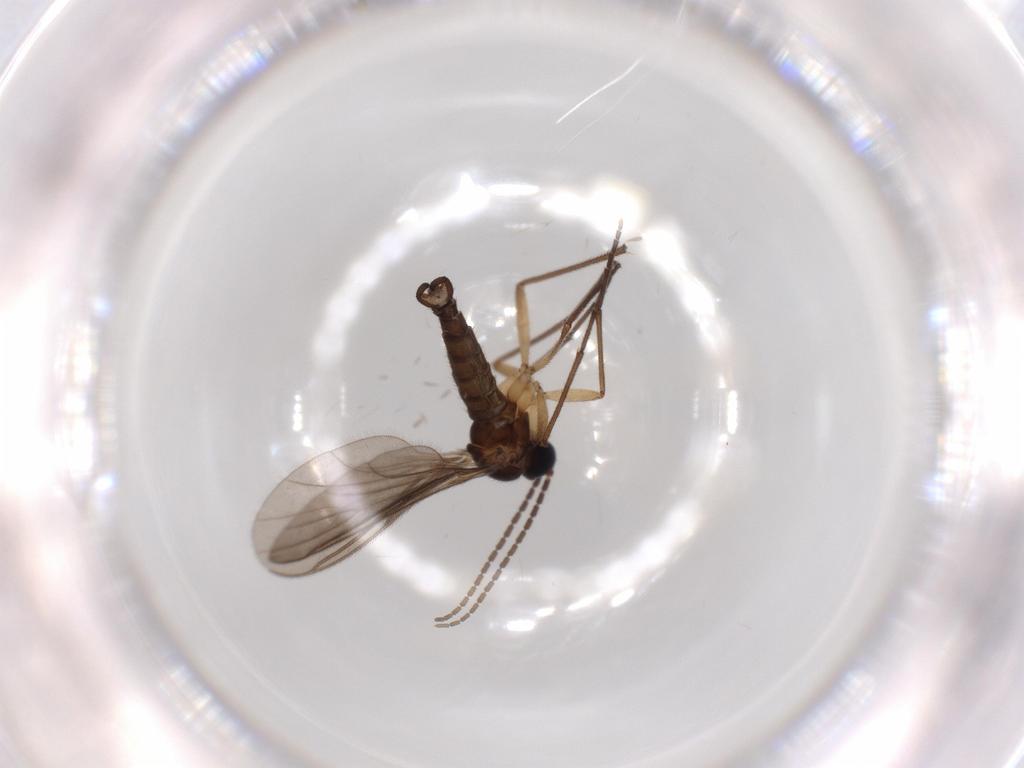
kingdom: Animalia
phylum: Arthropoda
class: Insecta
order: Diptera
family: Sciaridae
